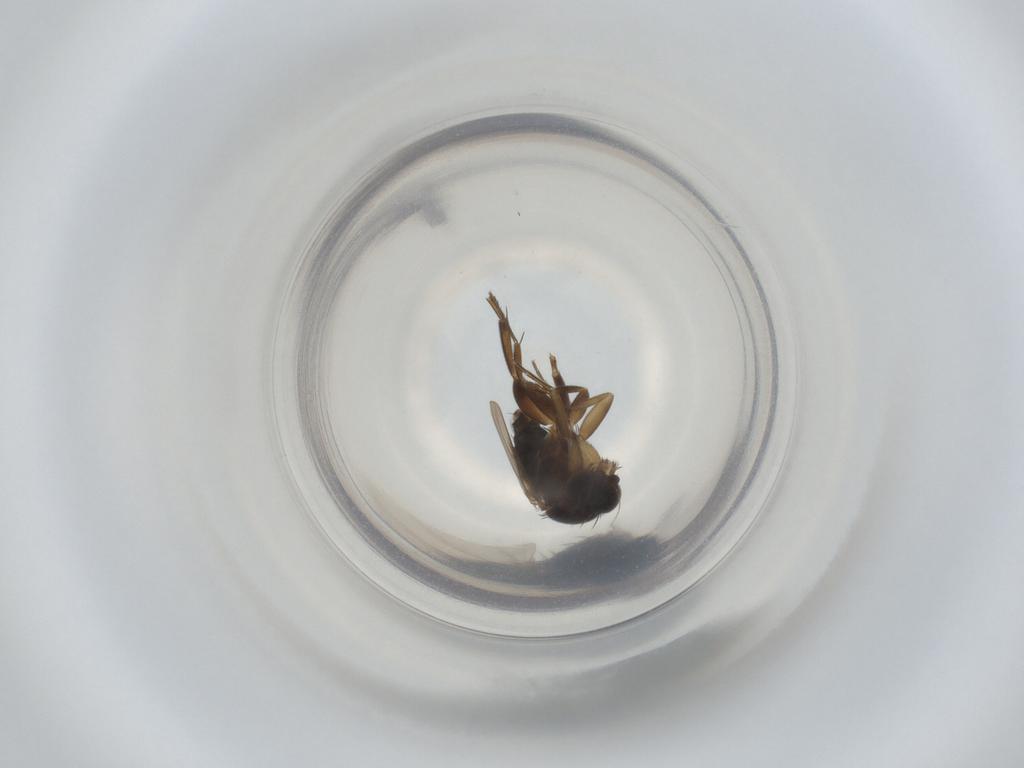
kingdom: Animalia
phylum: Arthropoda
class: Insecta
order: Diptera
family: Phoridae
